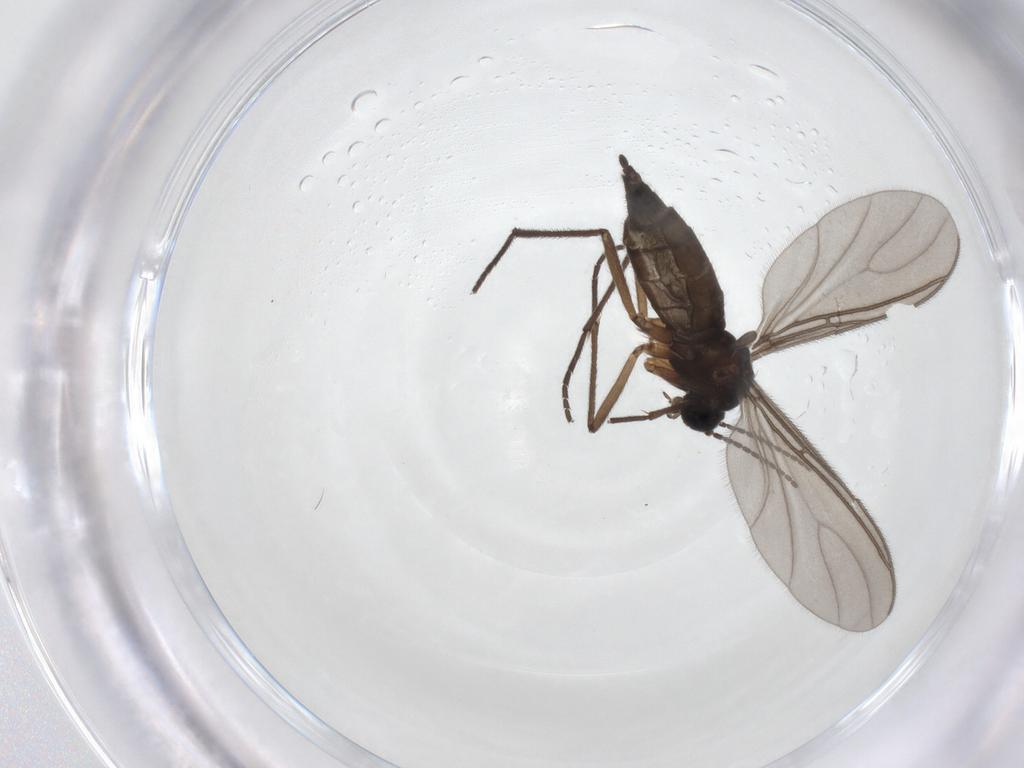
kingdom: Animalia
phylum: Arthropoda
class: Insecta
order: Diptera
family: Sciaridae
